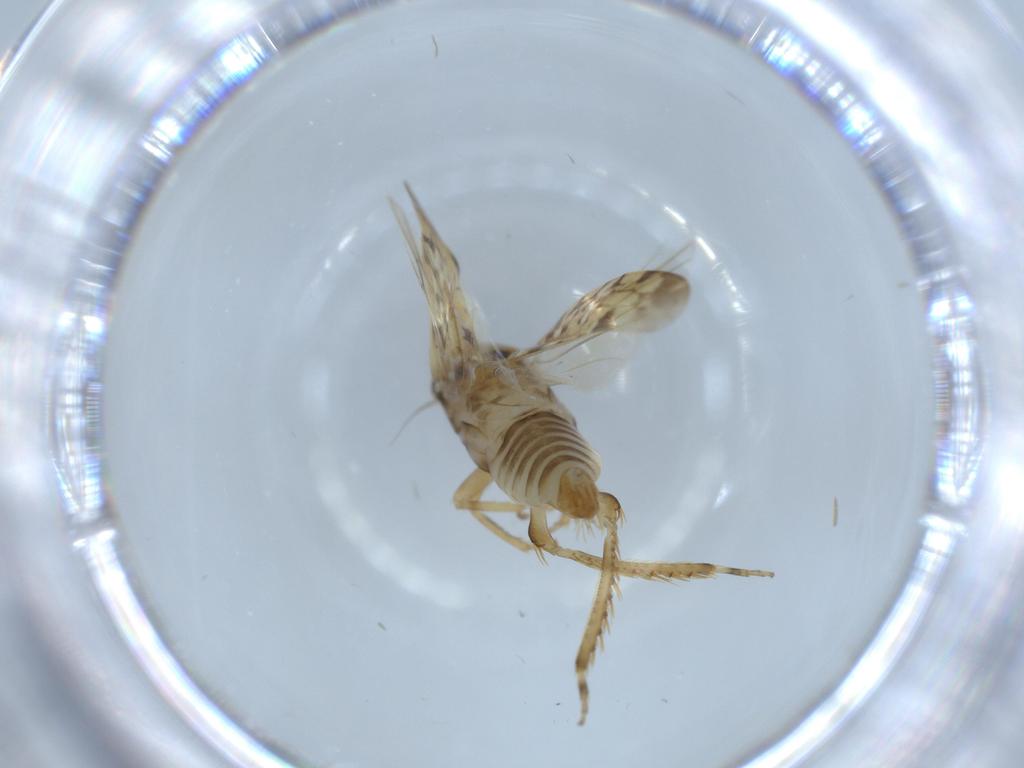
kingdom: Animalia
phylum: Arthropoda
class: Insecta
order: Hemiptera
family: Cicadellidae
